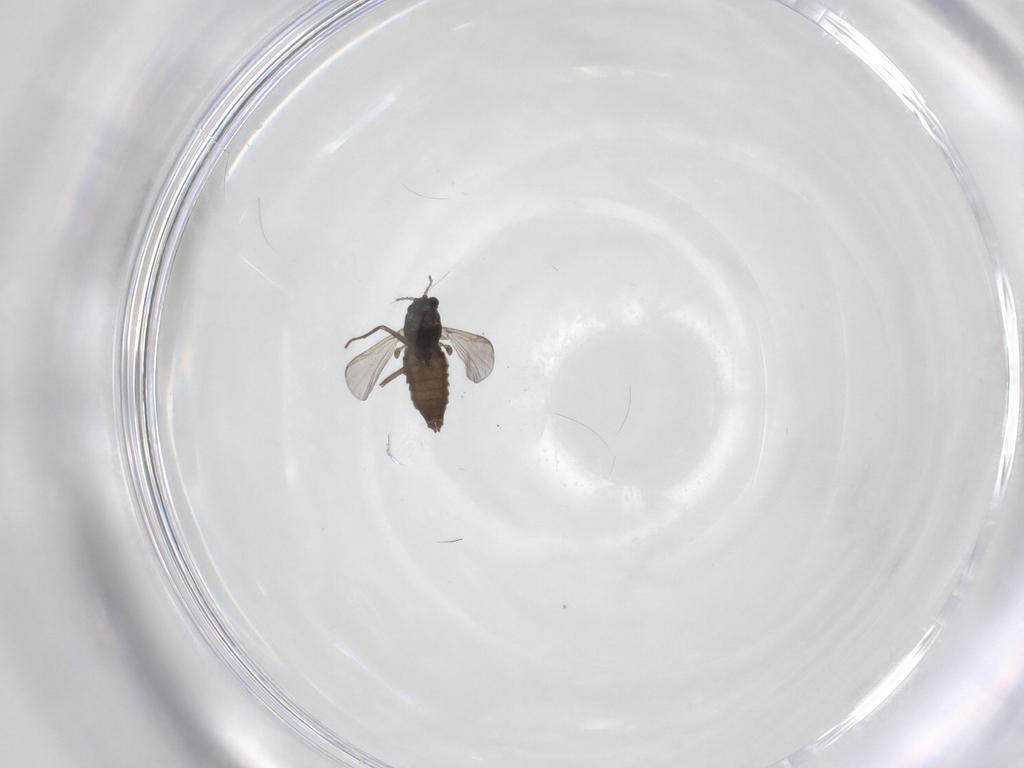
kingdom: Animalia
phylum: Arthropoda
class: Insecta
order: Diptera
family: Chironomidae
